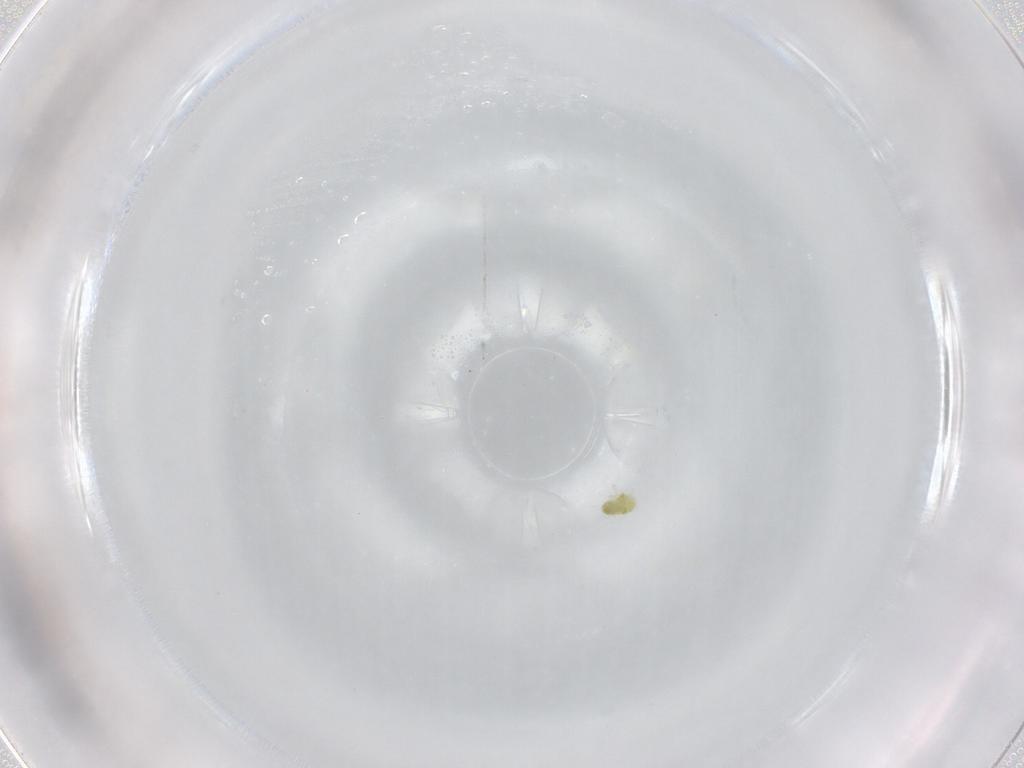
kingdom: Animalia
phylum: Arthropoda
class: Arachnida
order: Trombidiformes
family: Eupodidae
